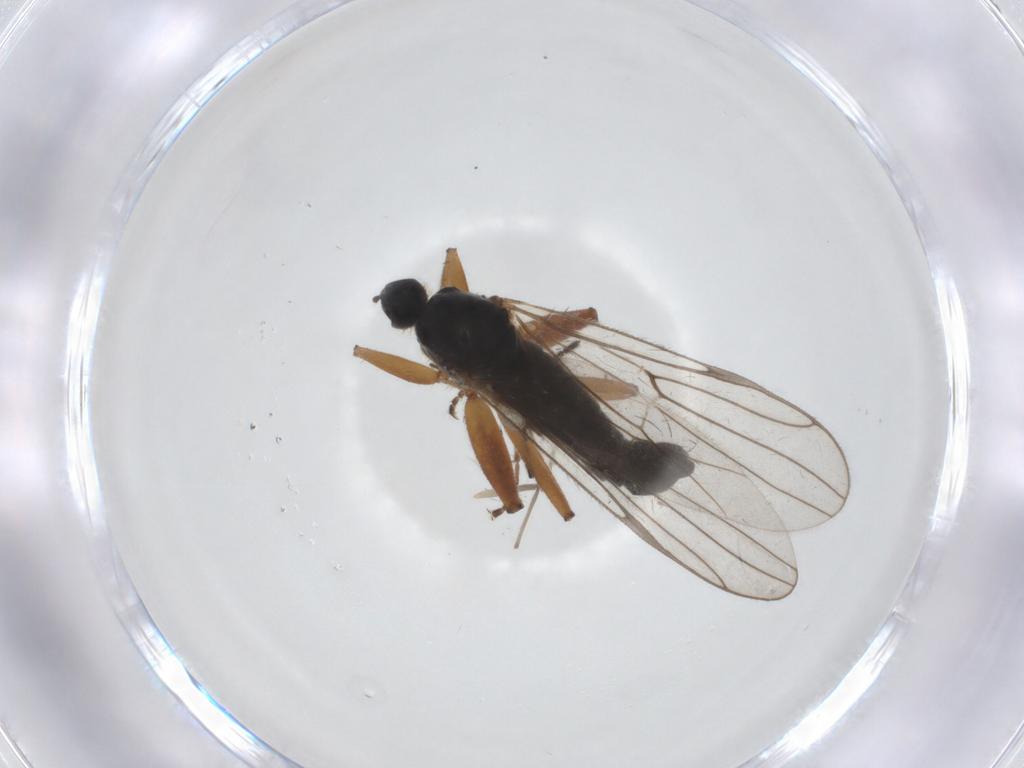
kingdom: Animalia
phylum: Arthropoda
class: Insecta
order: Diptera
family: Hybotidae
